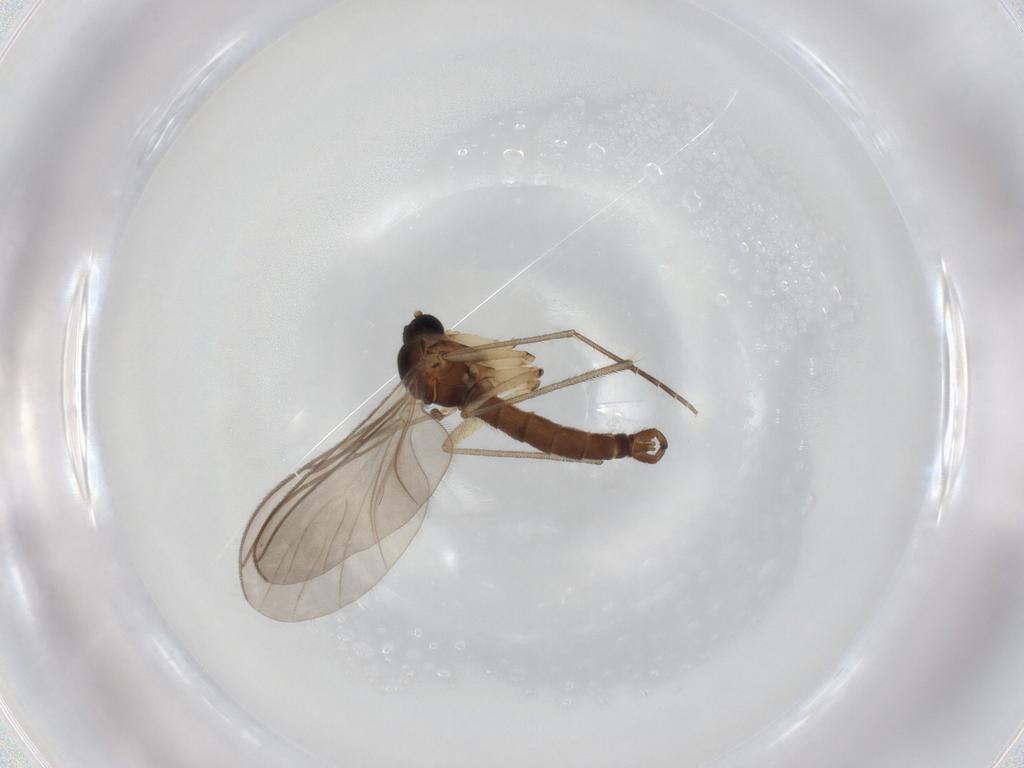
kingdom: Animalia
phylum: Arthropoda
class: Insecta
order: Diptera
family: Sciaridae
